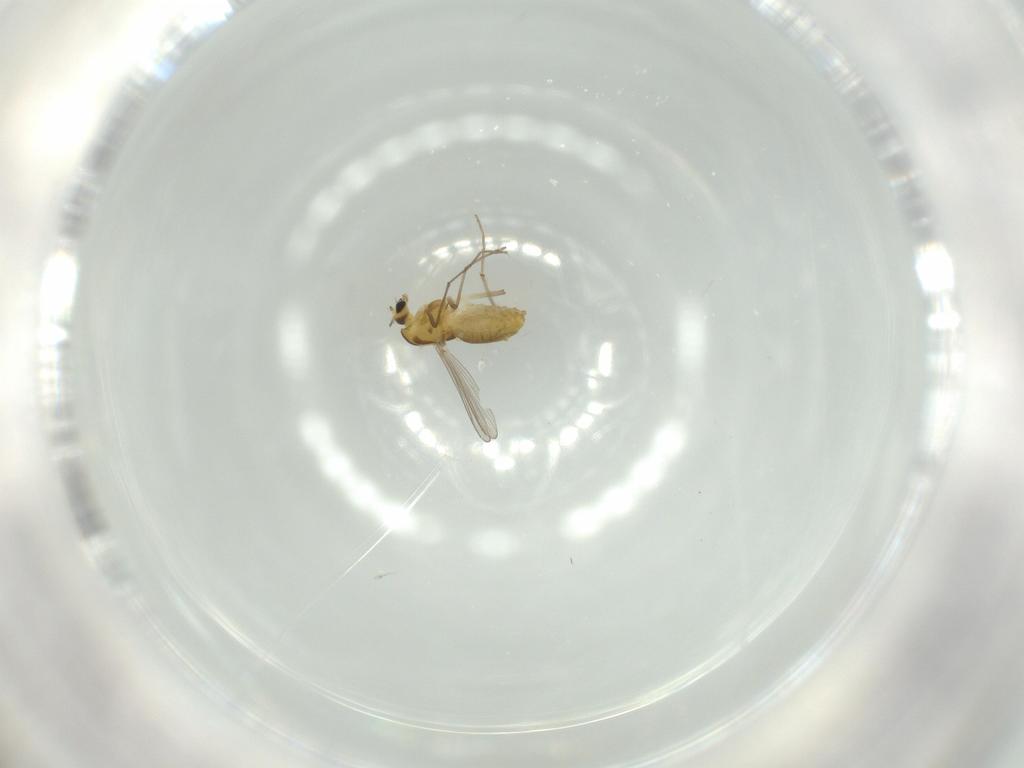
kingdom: Animalia
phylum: Arthropoda
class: Insecta
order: Diptera
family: Chironomidae
